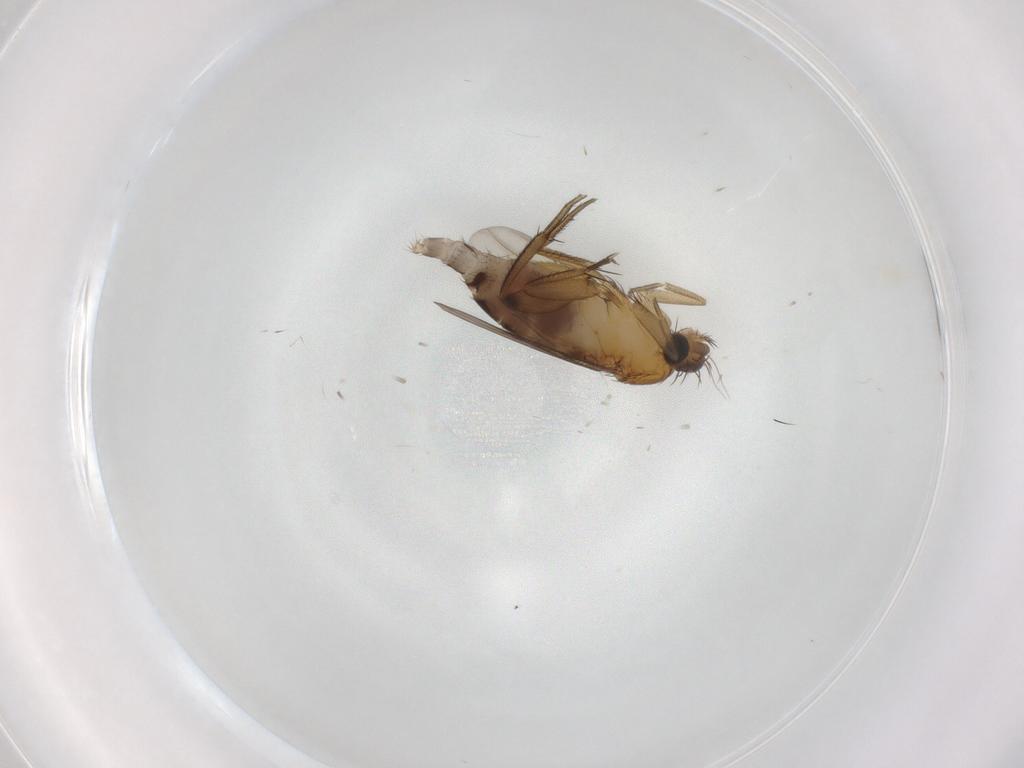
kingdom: Animalia
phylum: Arthropoda
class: Insecta
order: Diptera
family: Phoridae
